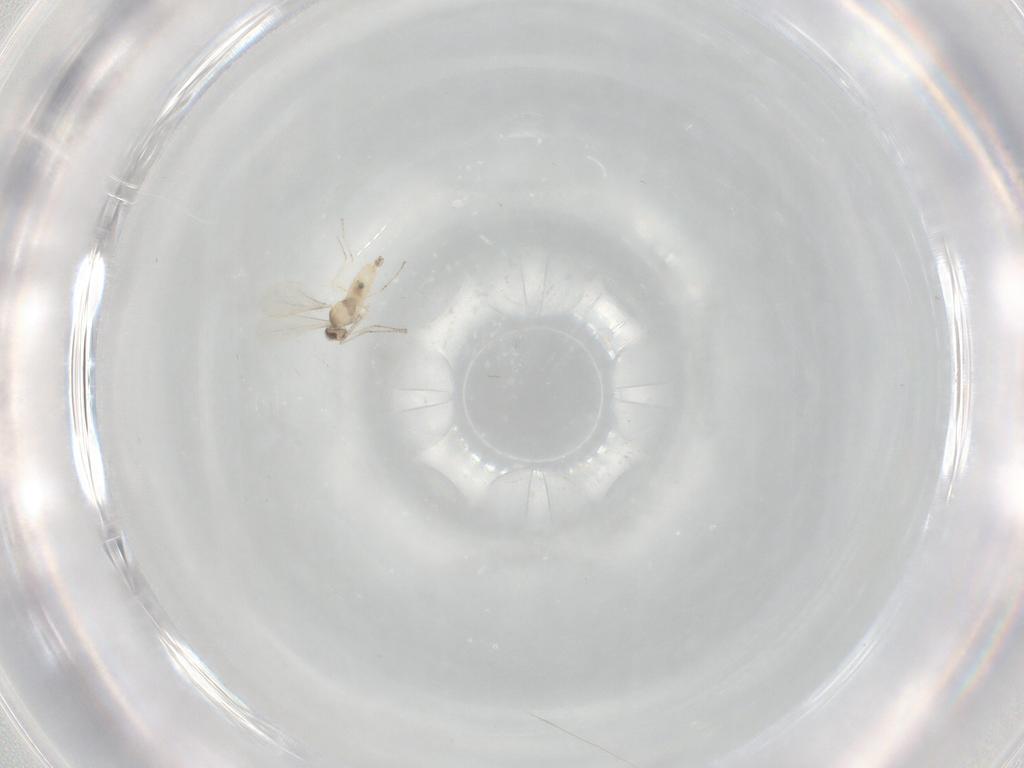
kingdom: Animalia
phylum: Arthropoda
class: Insecta
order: Diptera
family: Cecidomyiidae
